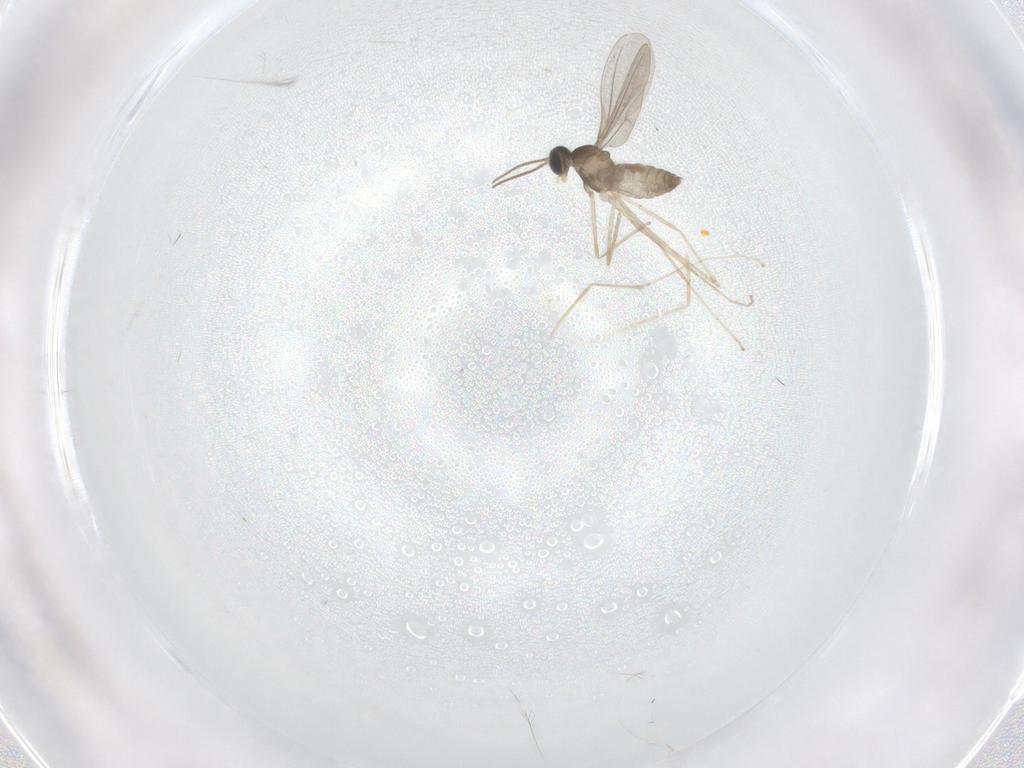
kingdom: Animalia
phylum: Arthropoda
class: Insecta
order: Diptera
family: Cecidomyiidae
